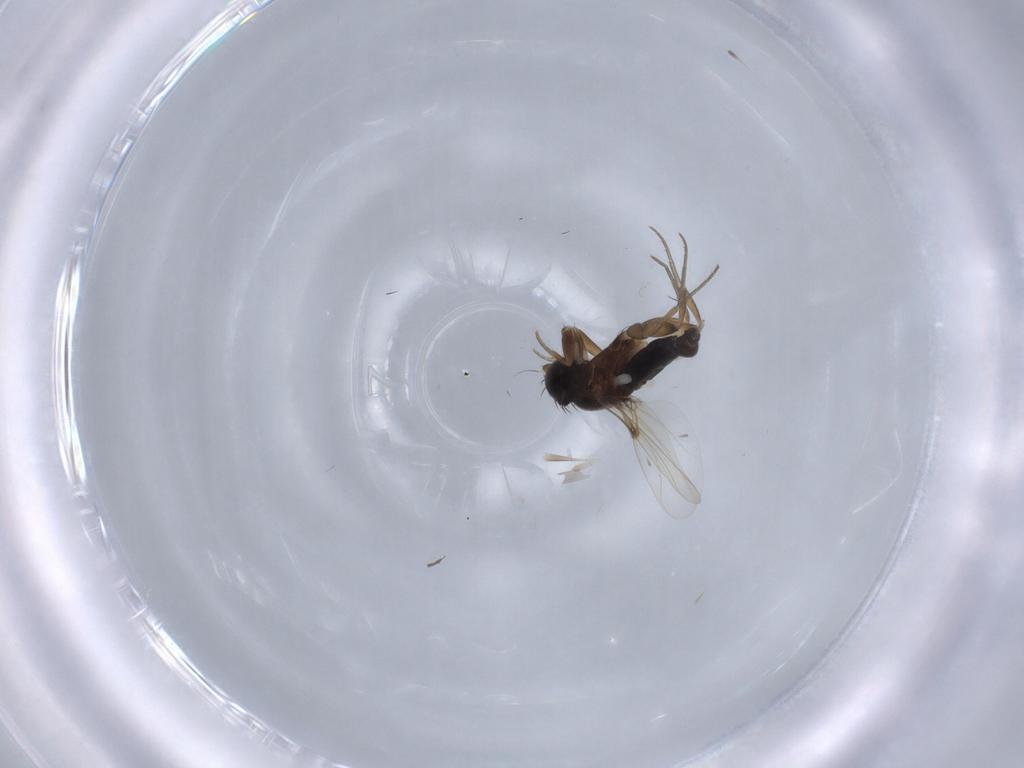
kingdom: Animalia
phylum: Arthropoda
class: Insecta
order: Diptera
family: Phoridae
